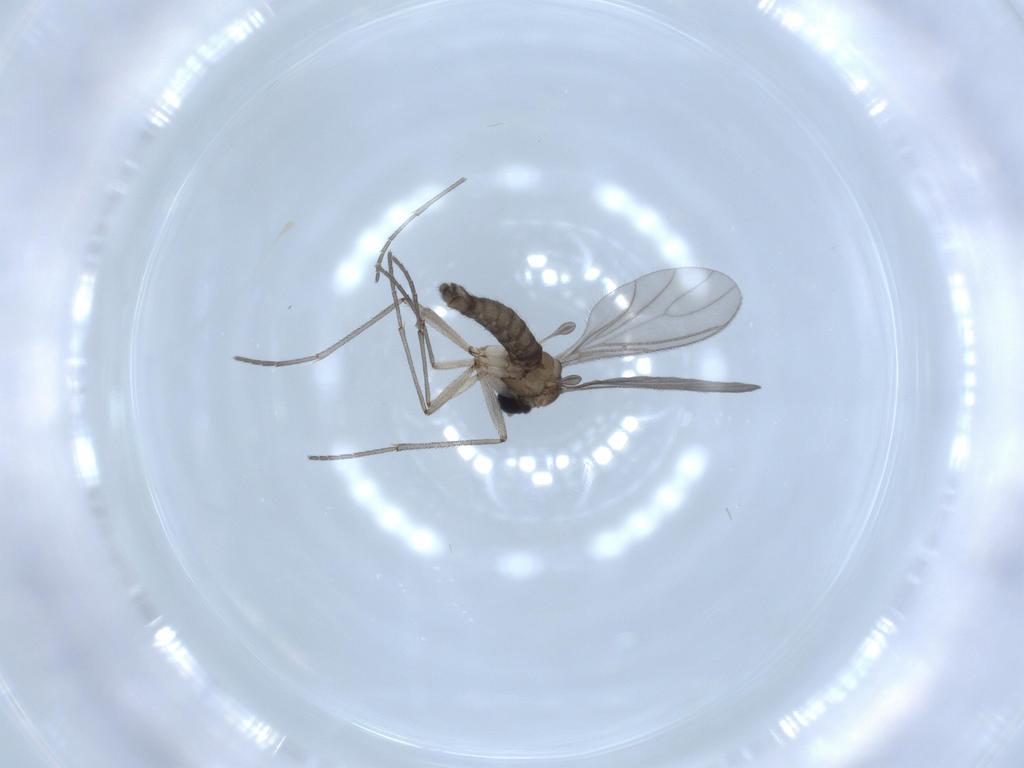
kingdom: Animalia
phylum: Arthropoda
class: Insecta
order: Diptera
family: Sciaridae
